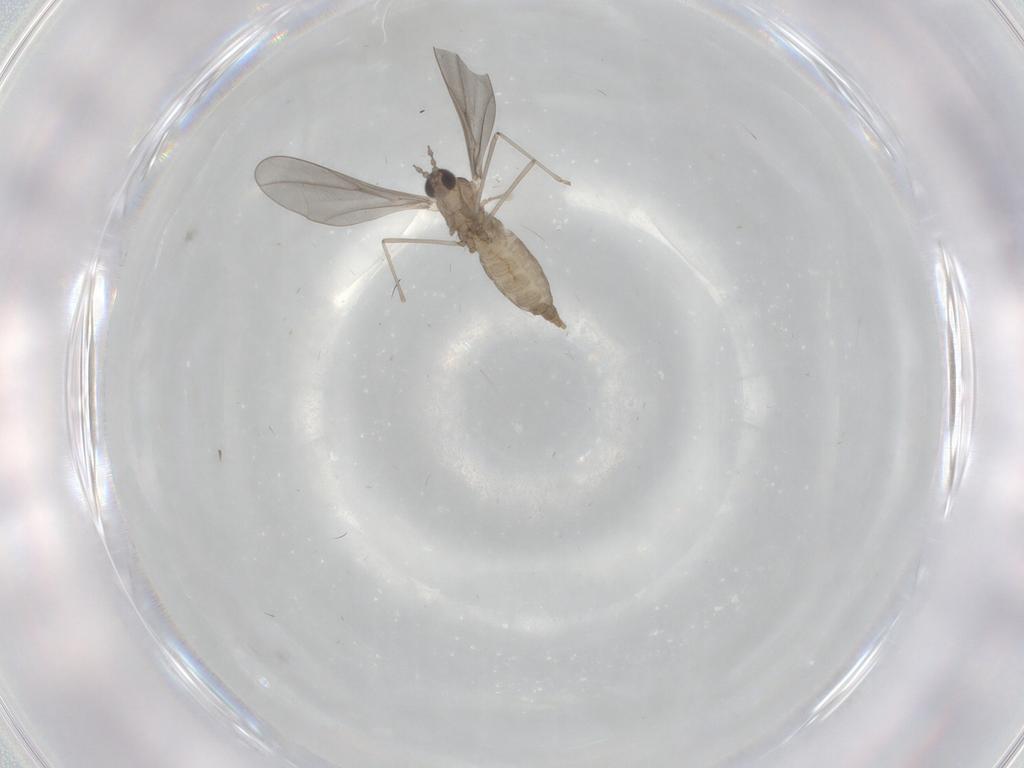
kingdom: Animalia
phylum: Arthropoda
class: Insecta
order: Diptera
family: Cecidomyiidae
